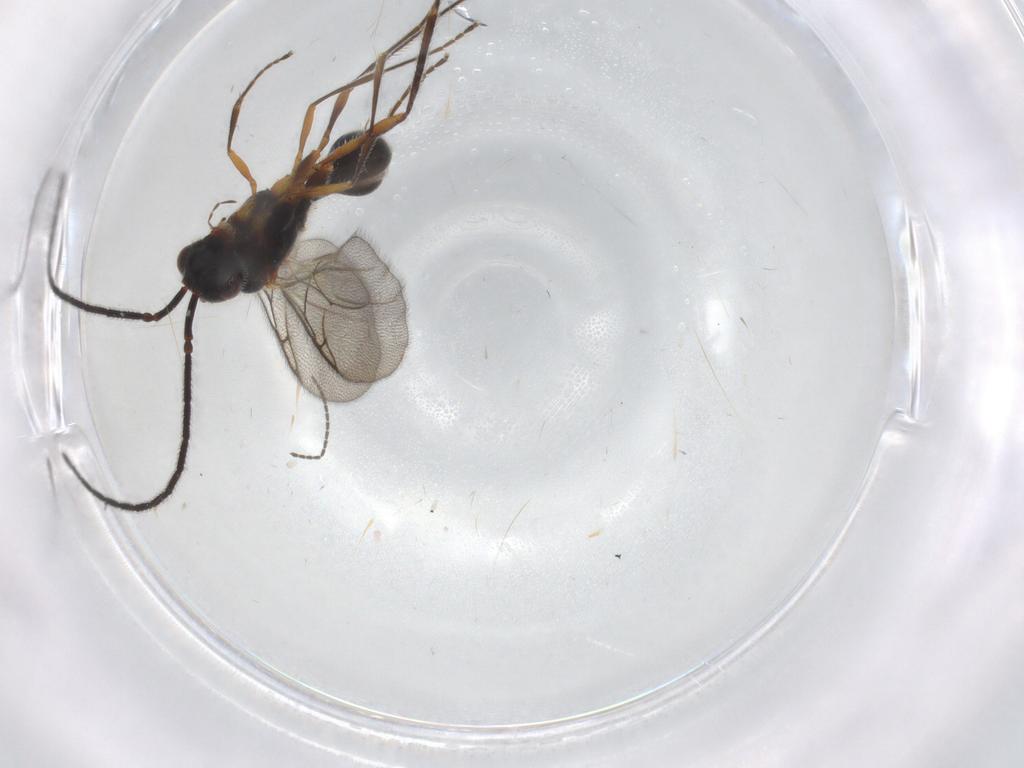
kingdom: Animalia
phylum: Arthropoda
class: Insecta
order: Hymenoptera
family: Diapriidae
